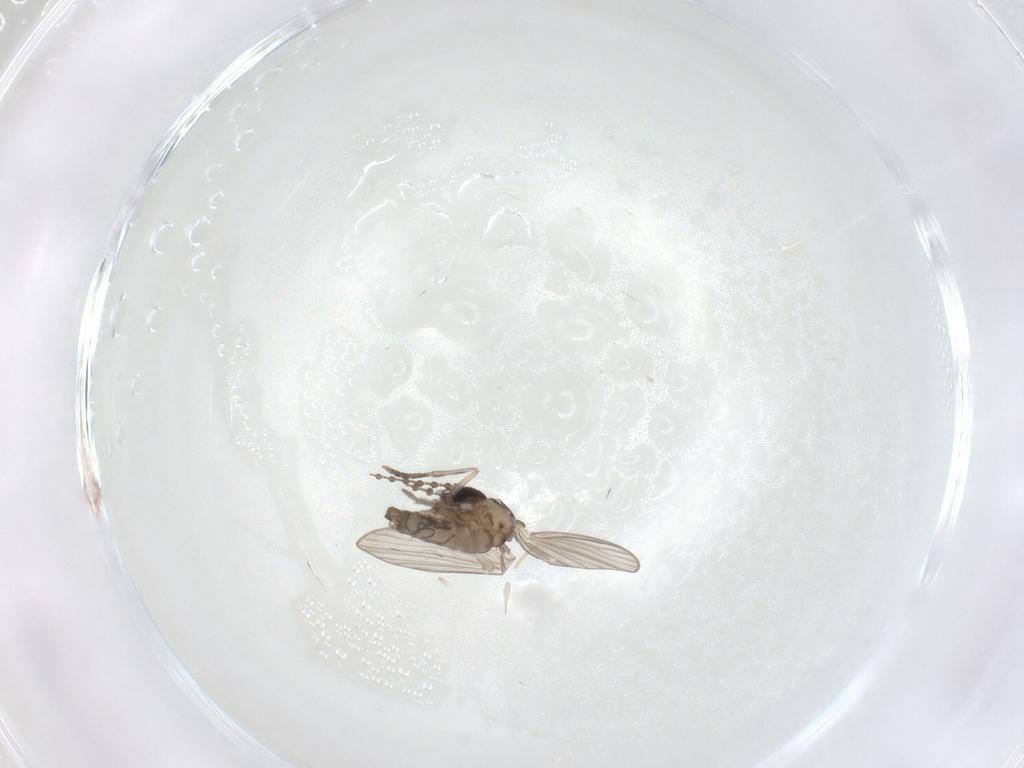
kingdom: Animalia
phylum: Arthropoda
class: Insecta
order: Diptera
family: Psychodidae
